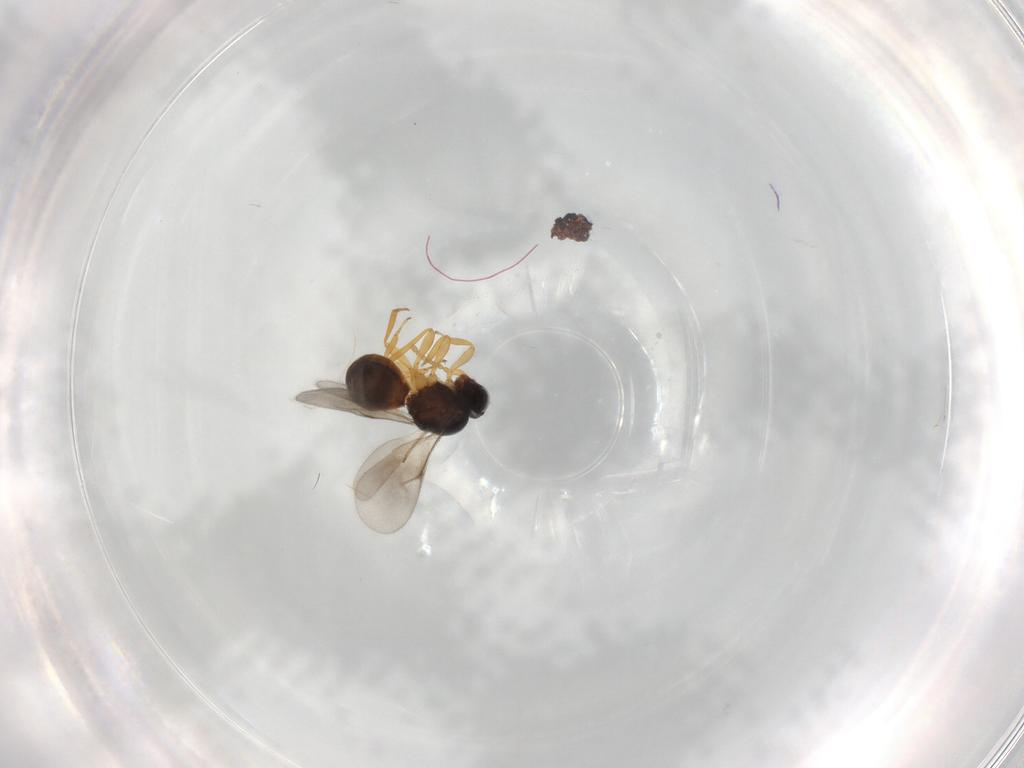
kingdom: Animalia
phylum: Arthropoda
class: Insecta
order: Hymenoptera
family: Scelionidae
